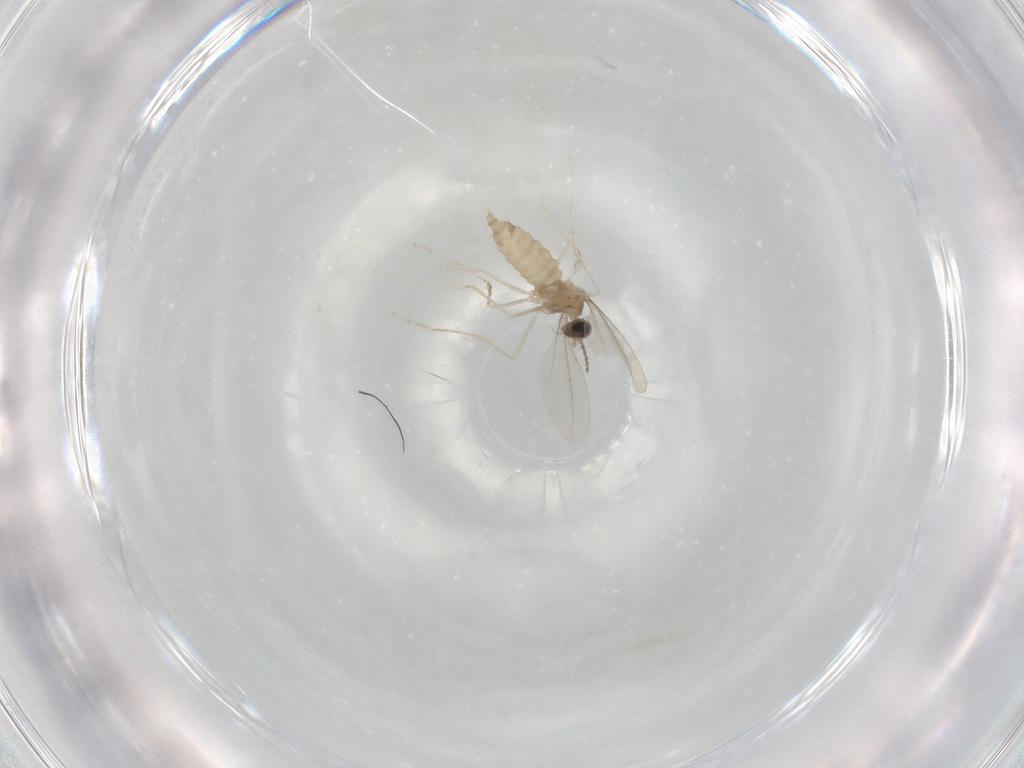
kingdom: Animalia
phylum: Arthropoda
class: Insecta
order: Diptera
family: Cecidomyiidae
